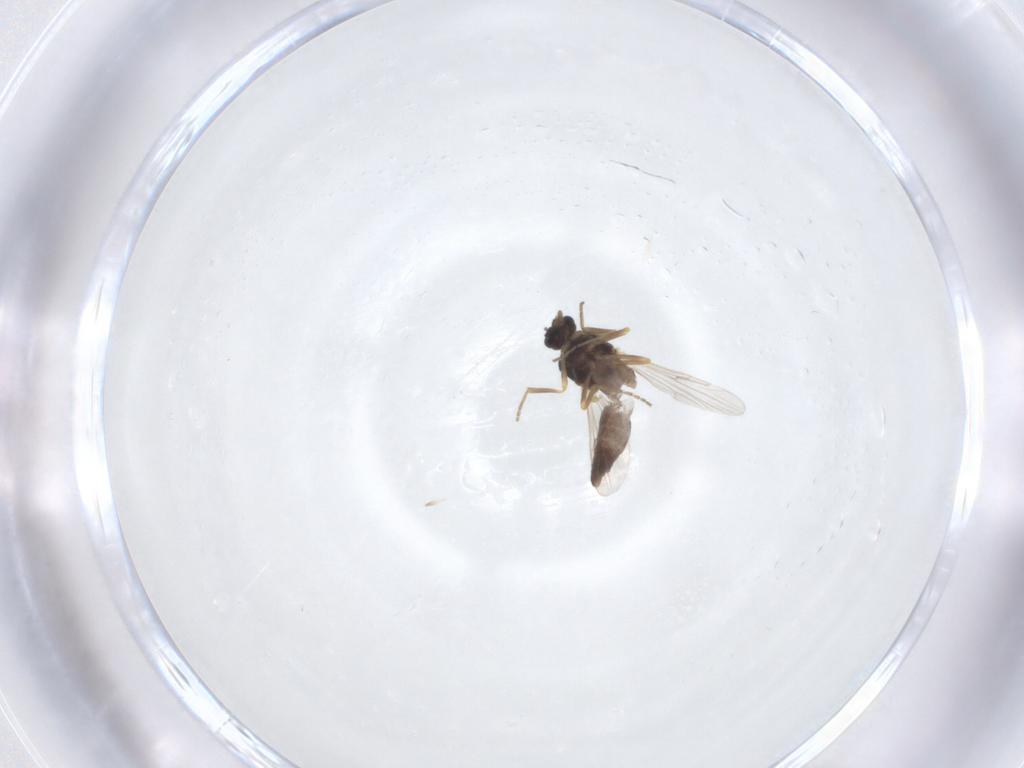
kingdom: Animalia
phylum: Arthropoda
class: Insecta
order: Diptera
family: Ceratopogonidae
